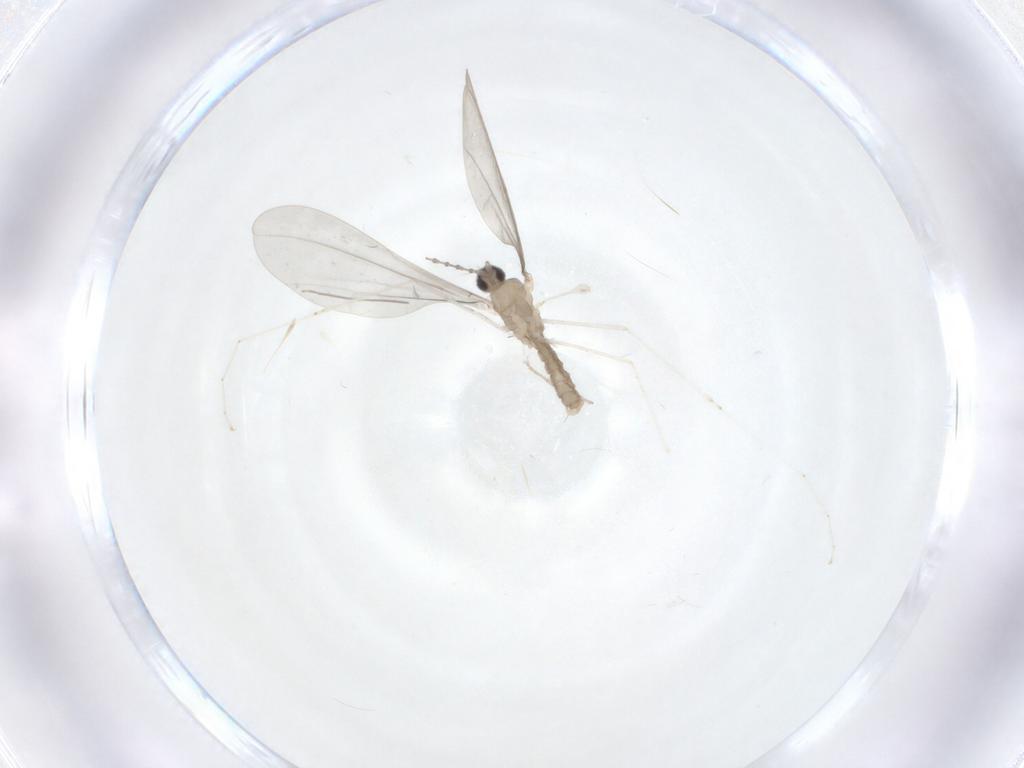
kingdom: Animalia
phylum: Arthropoda
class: Insecta
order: Diptera
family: Cecidomyiidae
